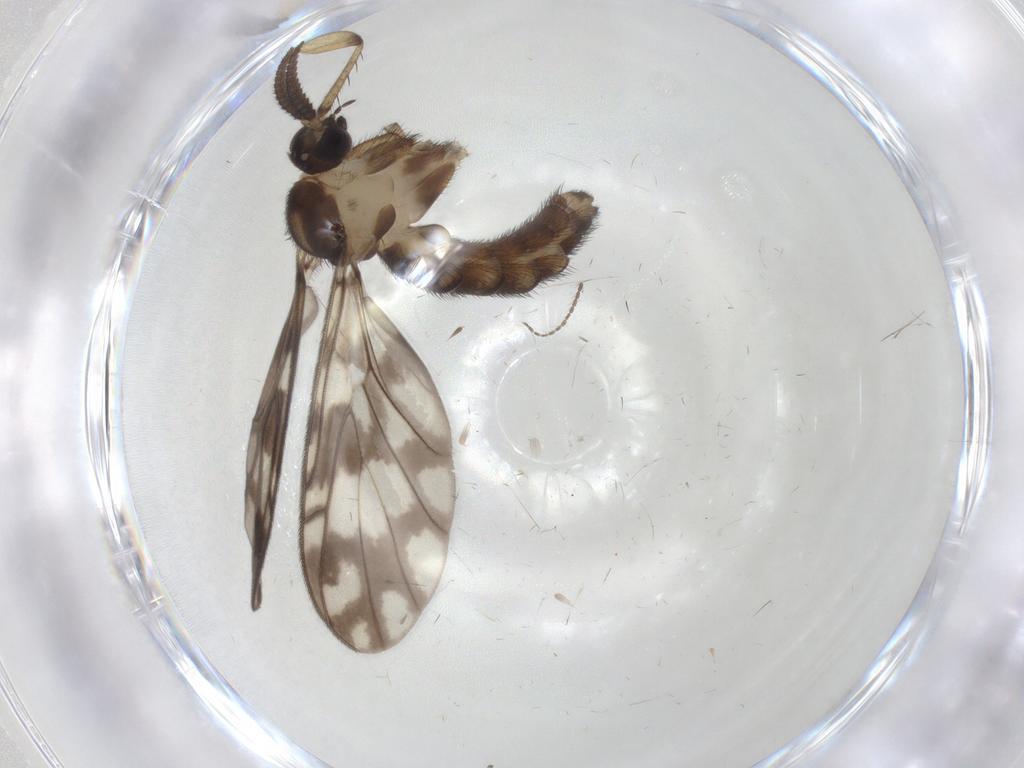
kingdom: Animalia
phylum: Arthropoda
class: Insecta
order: Diptera
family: Keroplatidae
